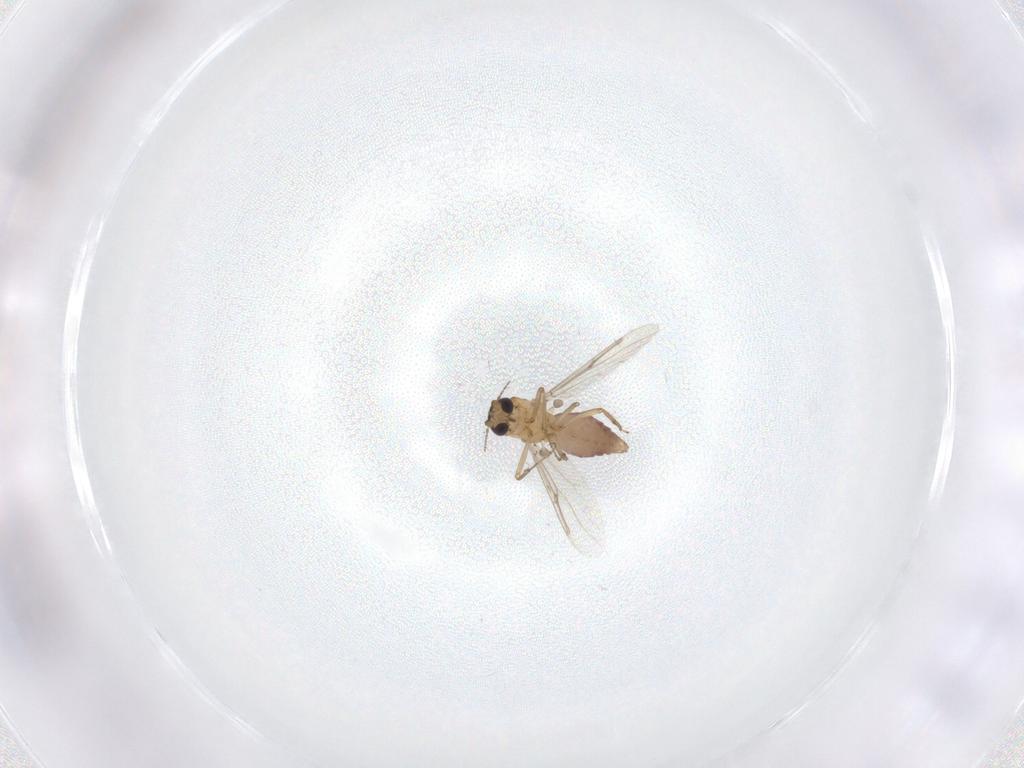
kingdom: Animalia
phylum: Arthropoda
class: Insecta
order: Diptera
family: Ceratopogonidae
